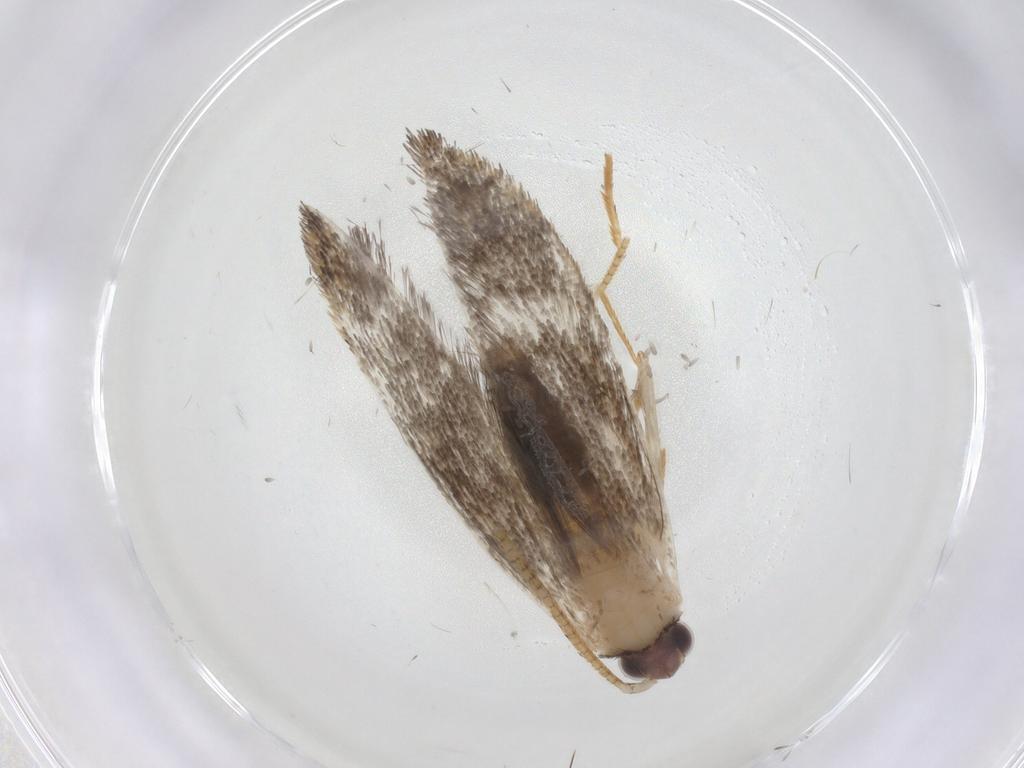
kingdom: Animalia
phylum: Arthropoda
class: Insecta
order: Lepidoptera
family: Tineidae
